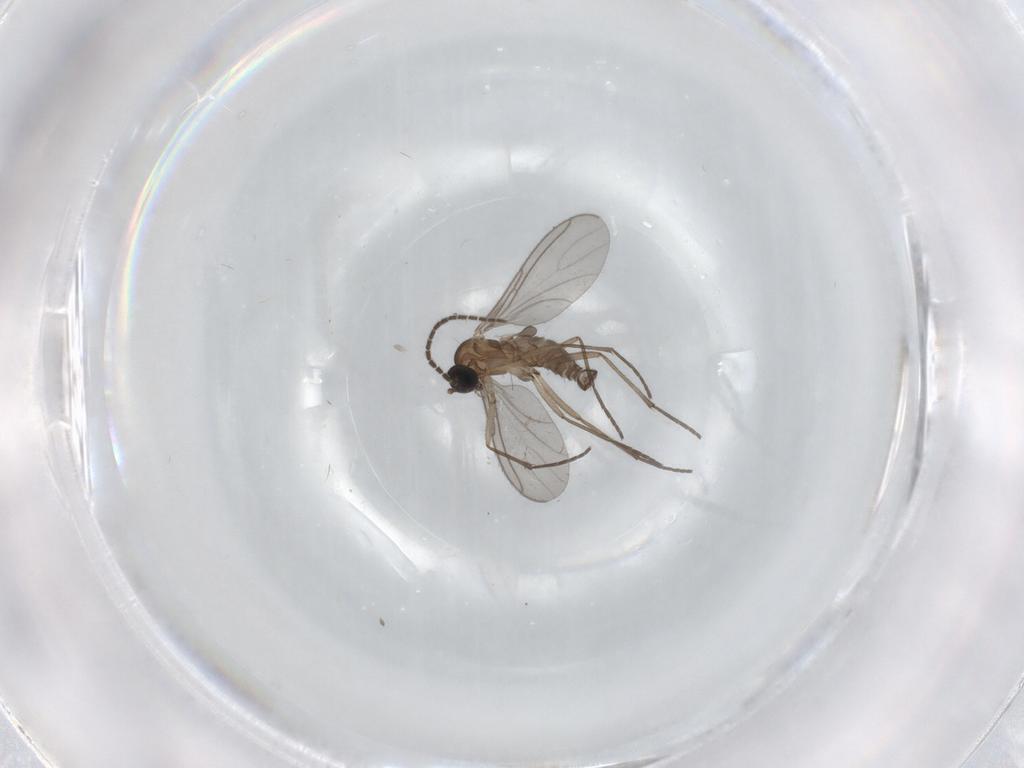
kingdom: Animalia
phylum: Arthropoda
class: Insecta
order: Diptera
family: Sciaridae
